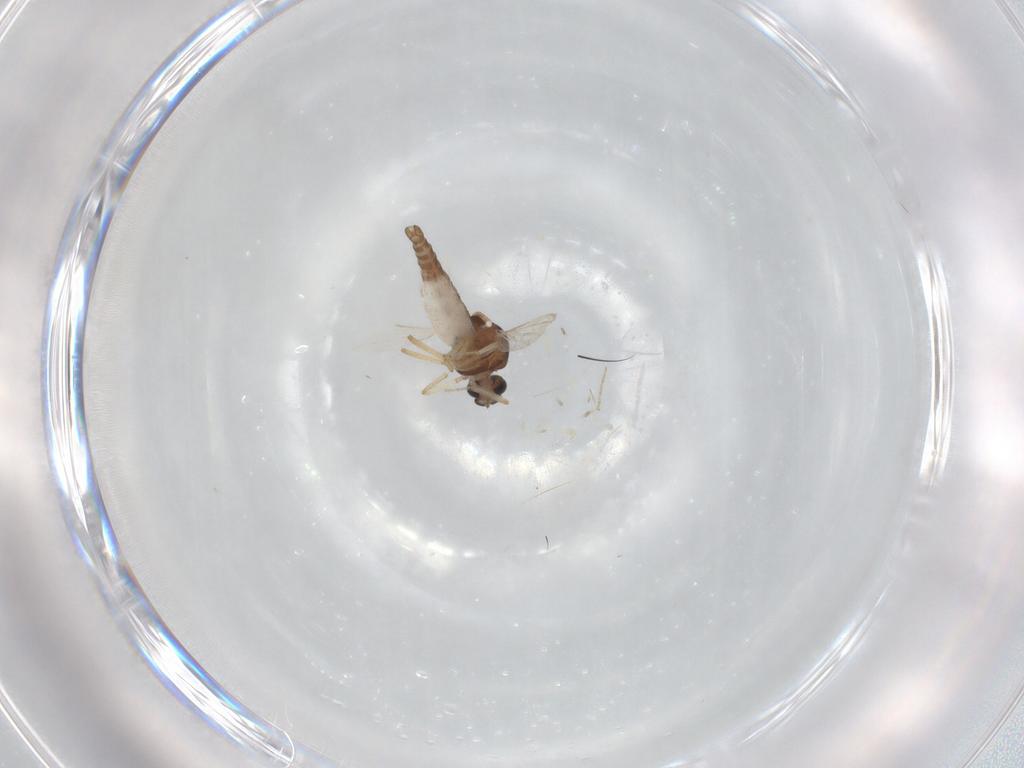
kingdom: Animalia
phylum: Arthropoda
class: Insecta
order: Diptera
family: Ceratopogonidae
